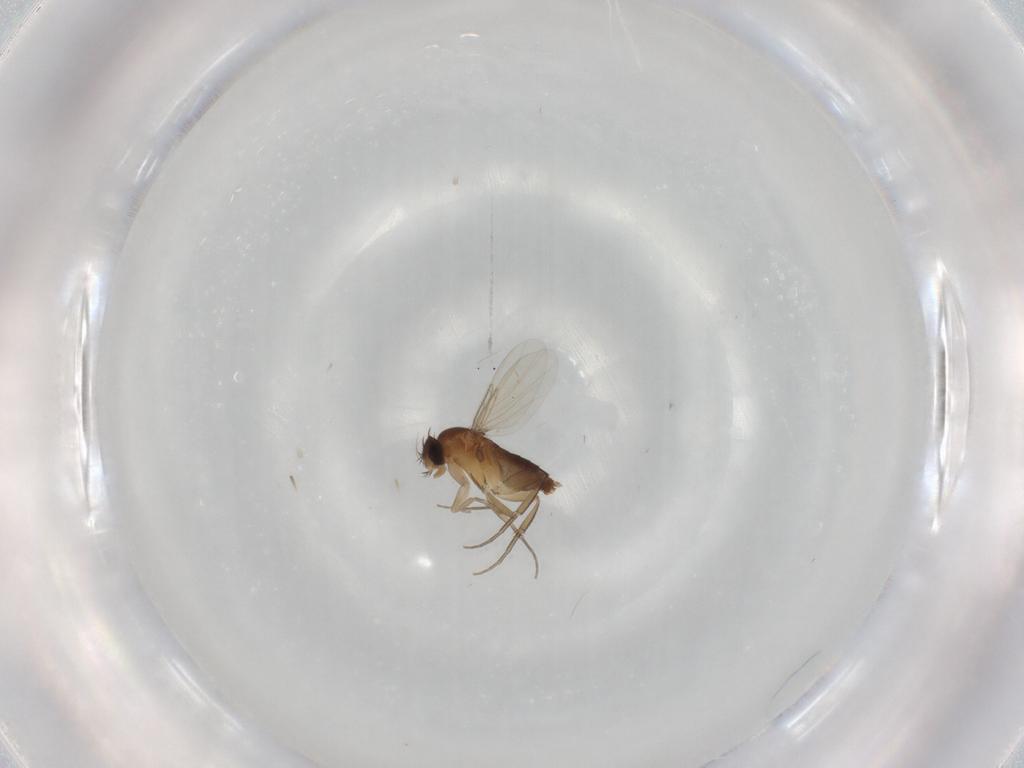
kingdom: Animalia
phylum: Arthropoda
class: Insecta
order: Diptera
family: Phoridae
